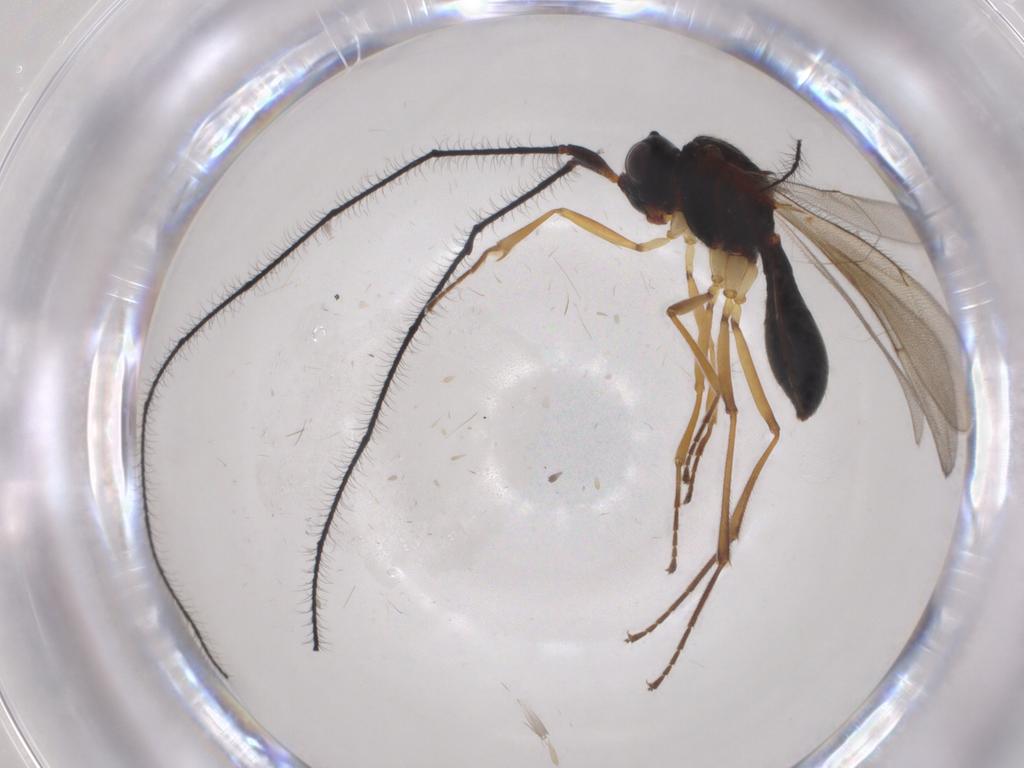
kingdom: Animalia
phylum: Arthropoda
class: Insecta
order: Hymenoptera
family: Scelionidae
